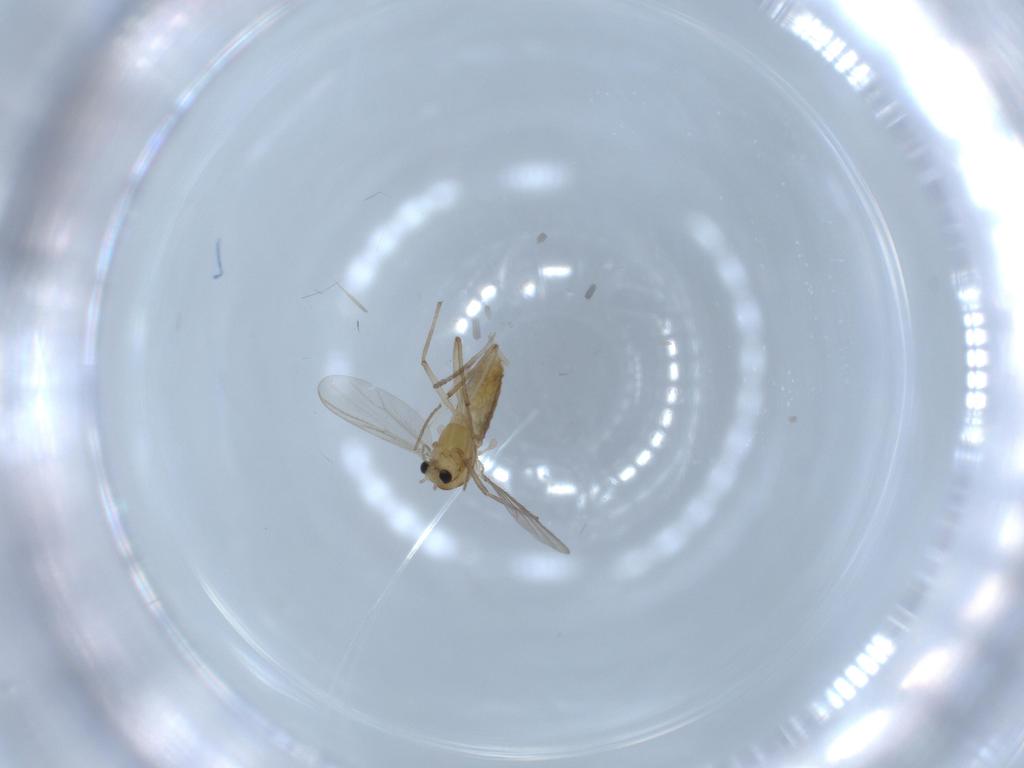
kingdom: Animalia
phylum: Arthropoda
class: Insecta
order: Diptera
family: Chironomidae
